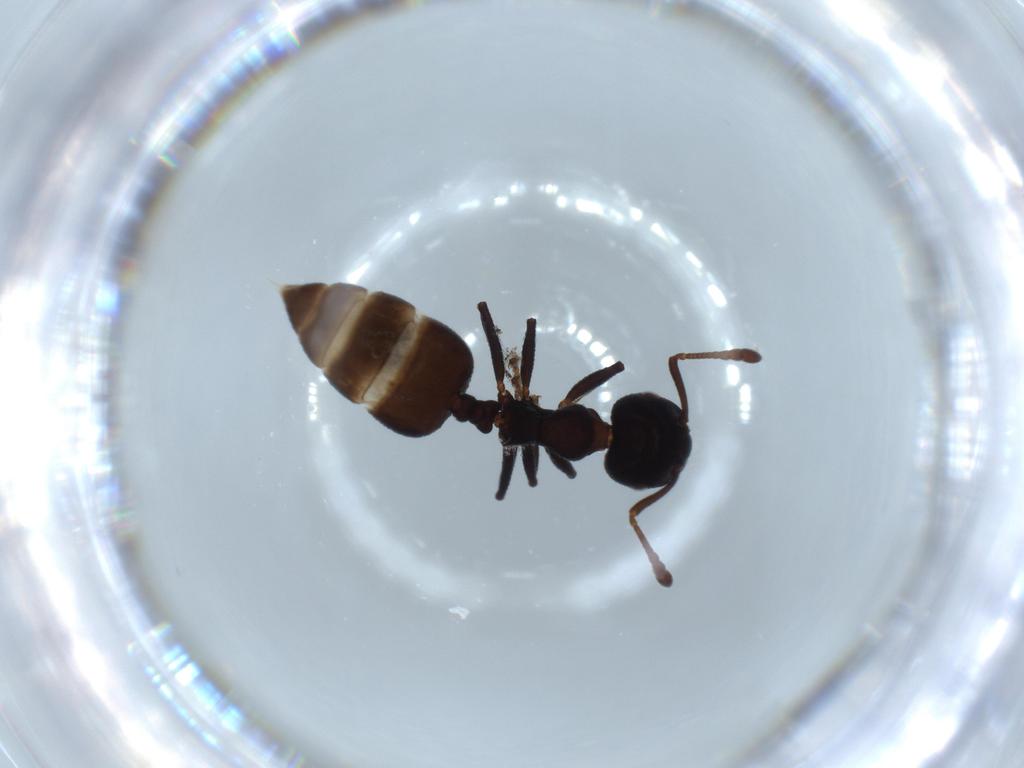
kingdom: Animalia
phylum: Arthropoda
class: Insecta
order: Hymenoptera
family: Formicidae
